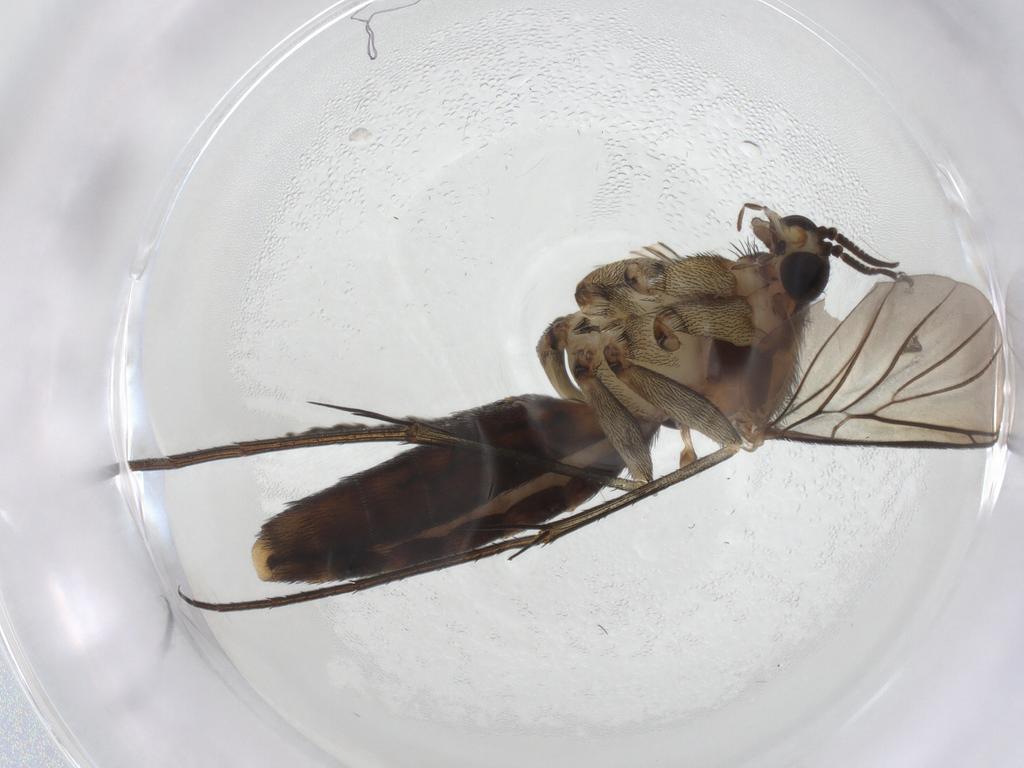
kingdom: Animalia
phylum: Arthropoda
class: Insecta
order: Diptera
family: Keroplatidae
